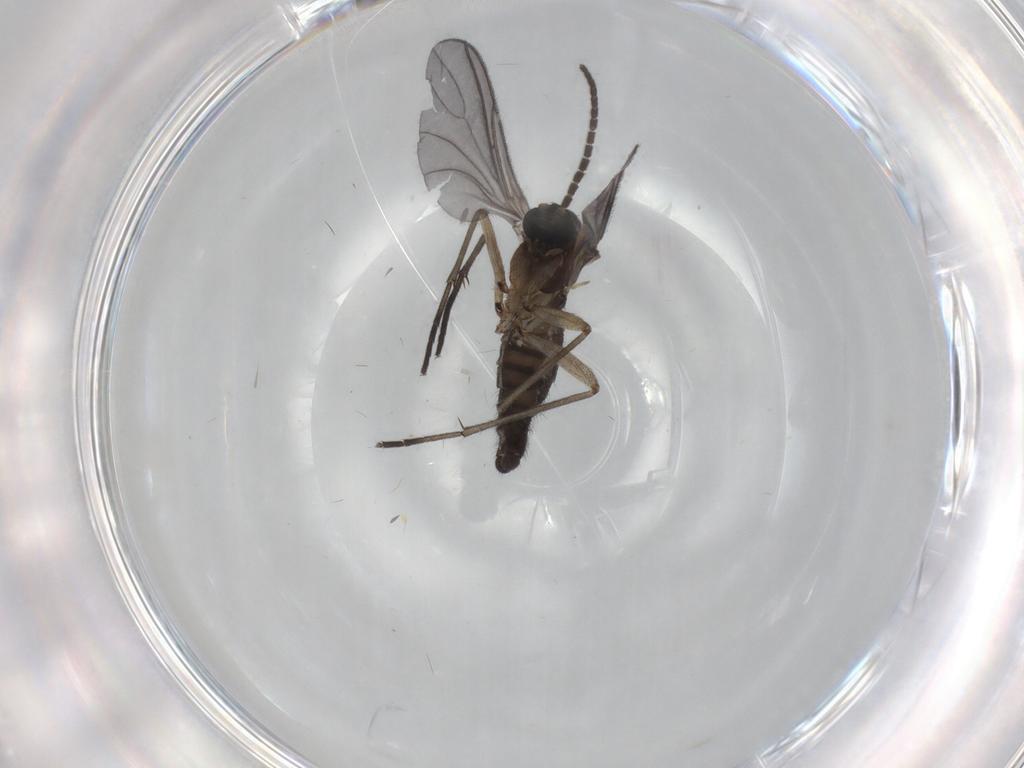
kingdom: Animalia
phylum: Arthropoda
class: Insecta
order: Diptera
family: Sciaridae
